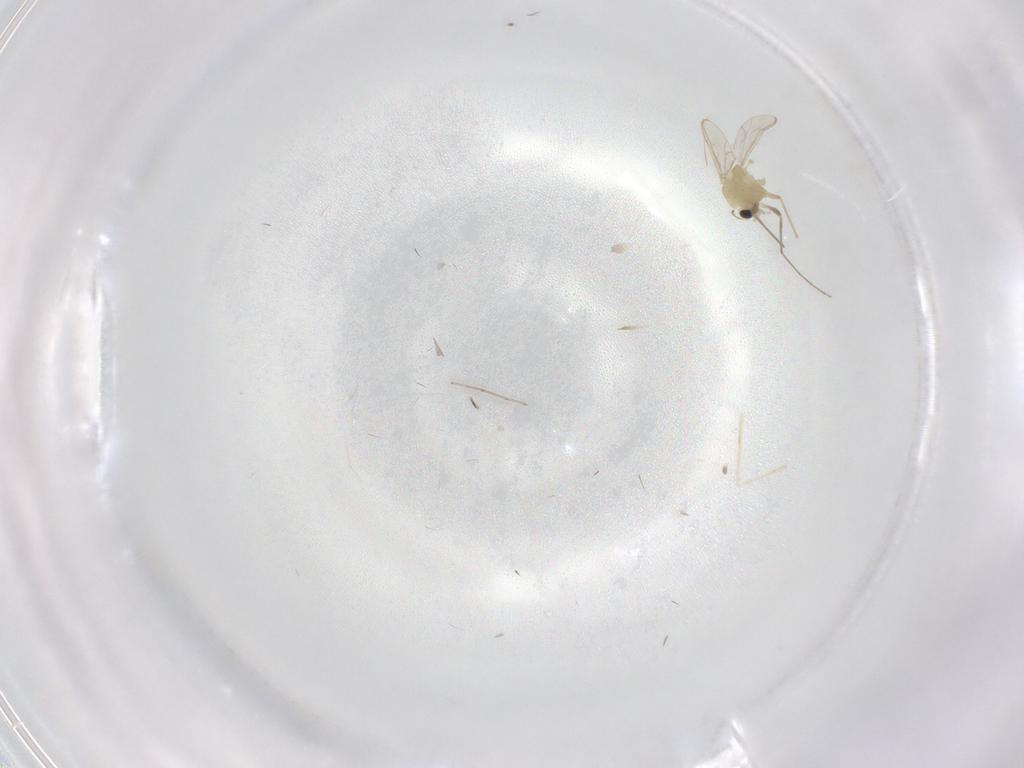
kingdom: Animalia
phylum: Arthropoda
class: Insecta
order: Diptera
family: Chironomidae
